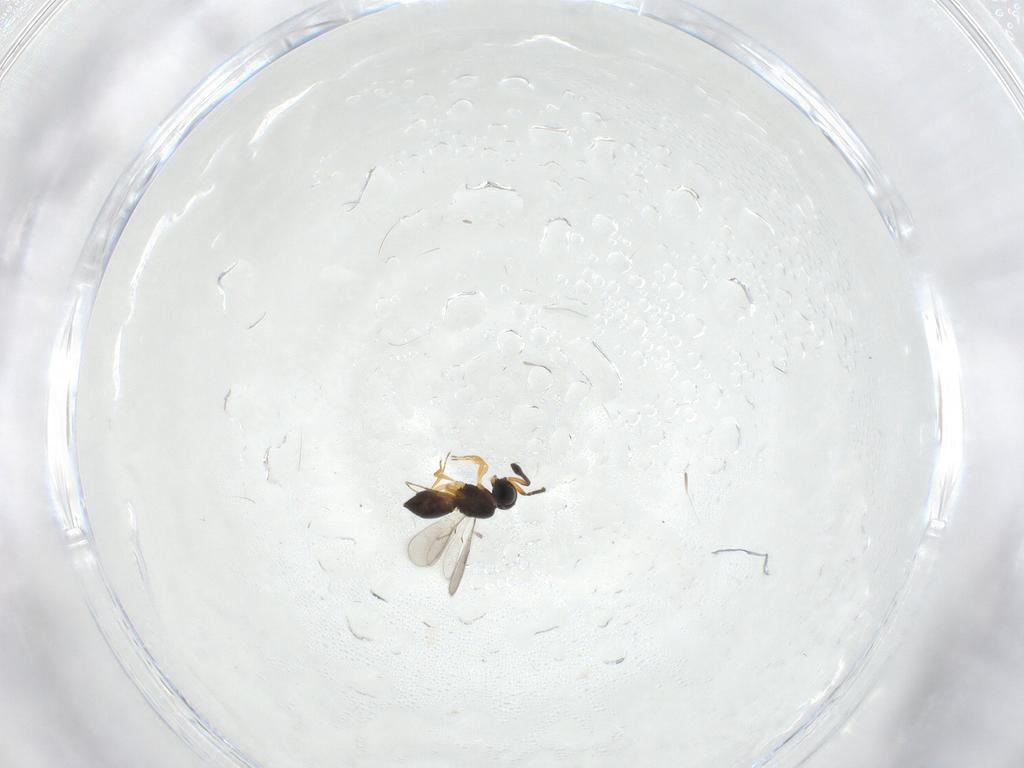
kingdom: Animalia
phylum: Arthropoda
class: Insecta
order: Hymenoptera
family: Scelionidae
